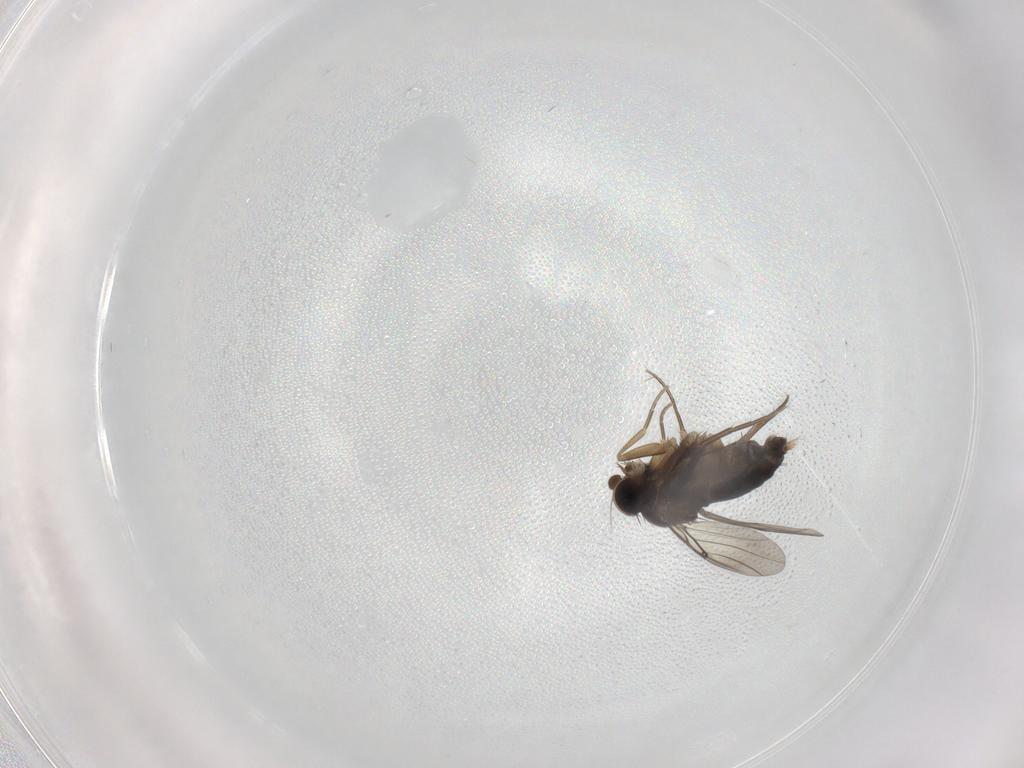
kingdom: Animalia
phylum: Arthropoda
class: Insecta
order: Diptera
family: Phoridae
